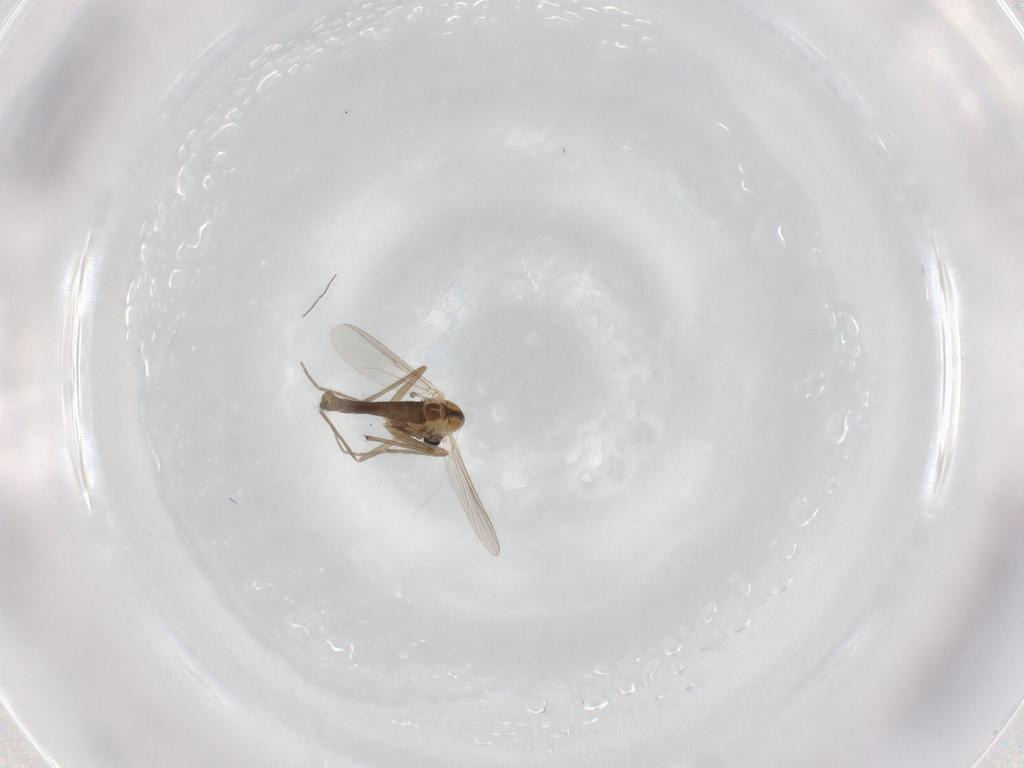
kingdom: Animalia
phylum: Arthropoda
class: Insecta
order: Diptera
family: Chironomidae
